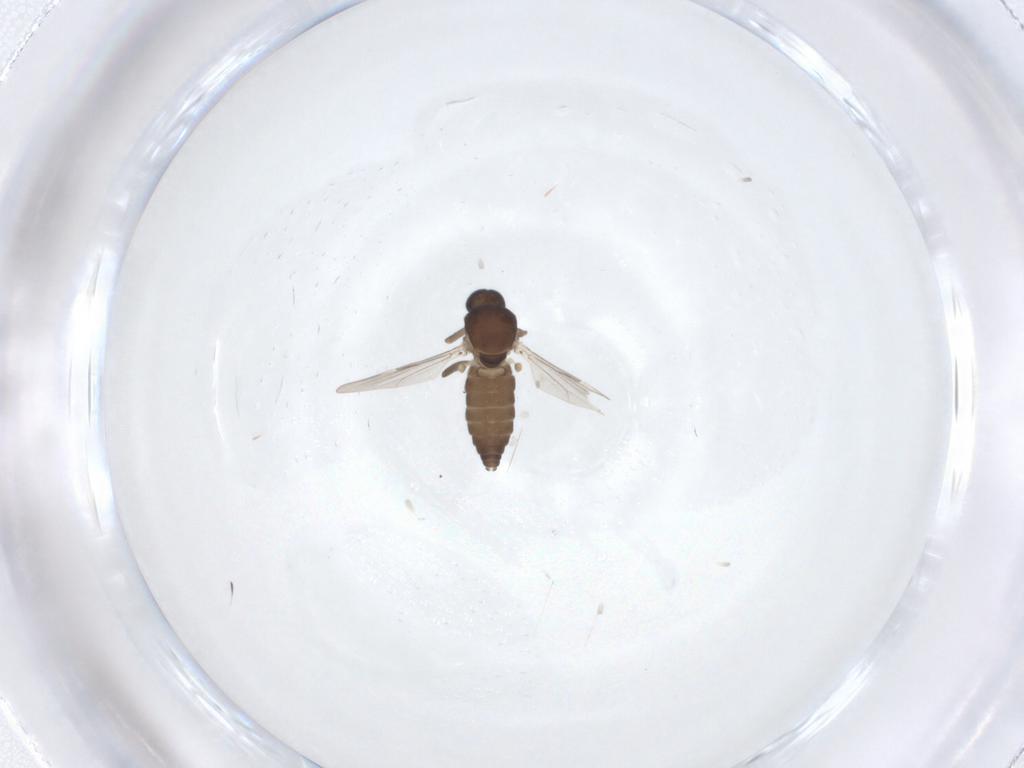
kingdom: Animalia
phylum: Arthropoda
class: Insecta
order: Diptera
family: Ceratopogonidae
